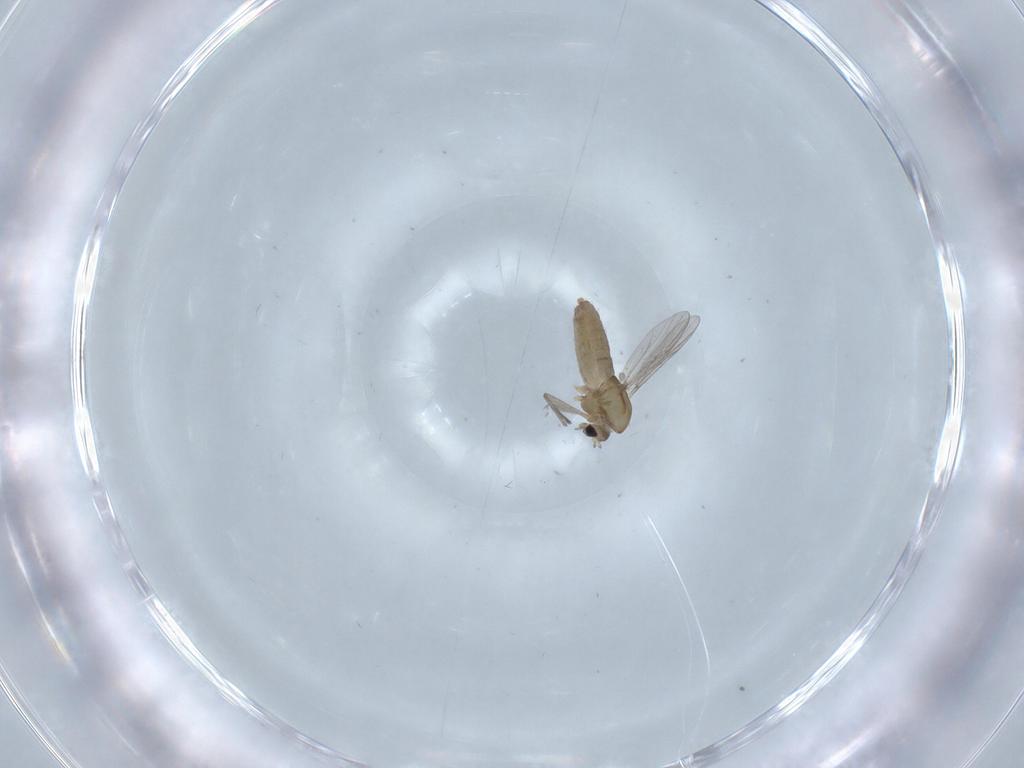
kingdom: Animalia
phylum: Arthropoda
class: Insecta
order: Diptera
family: Chironomidae
